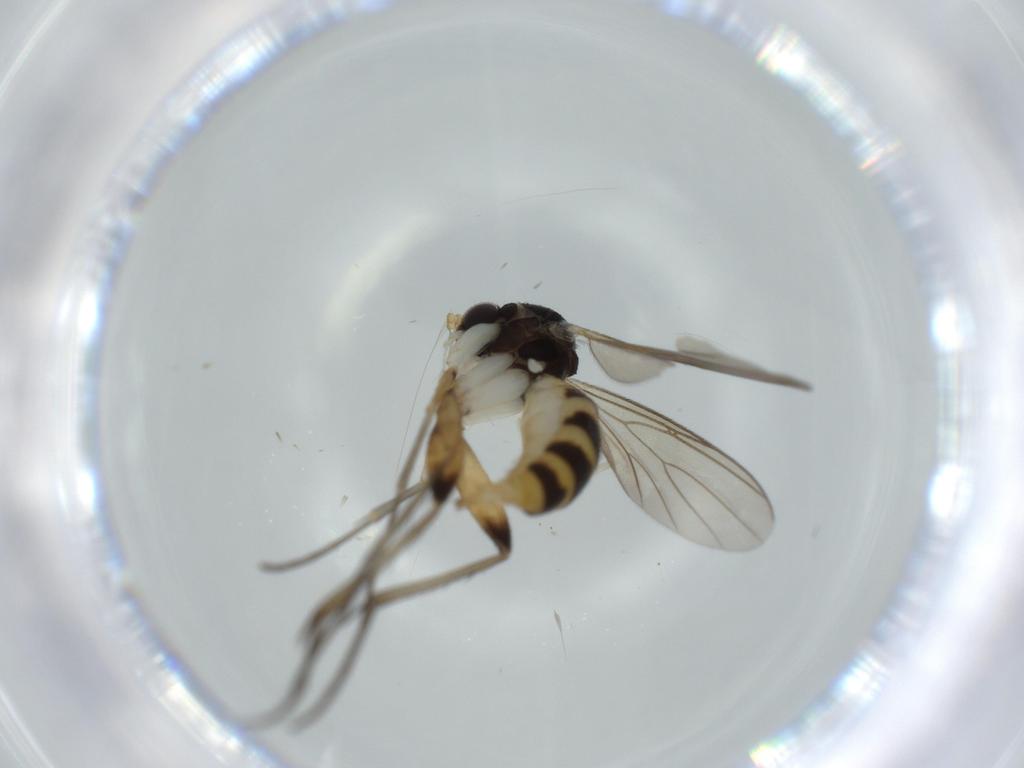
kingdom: Animalia
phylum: Arthropoda
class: Insecta
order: Diptera
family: Mycetophilidae
